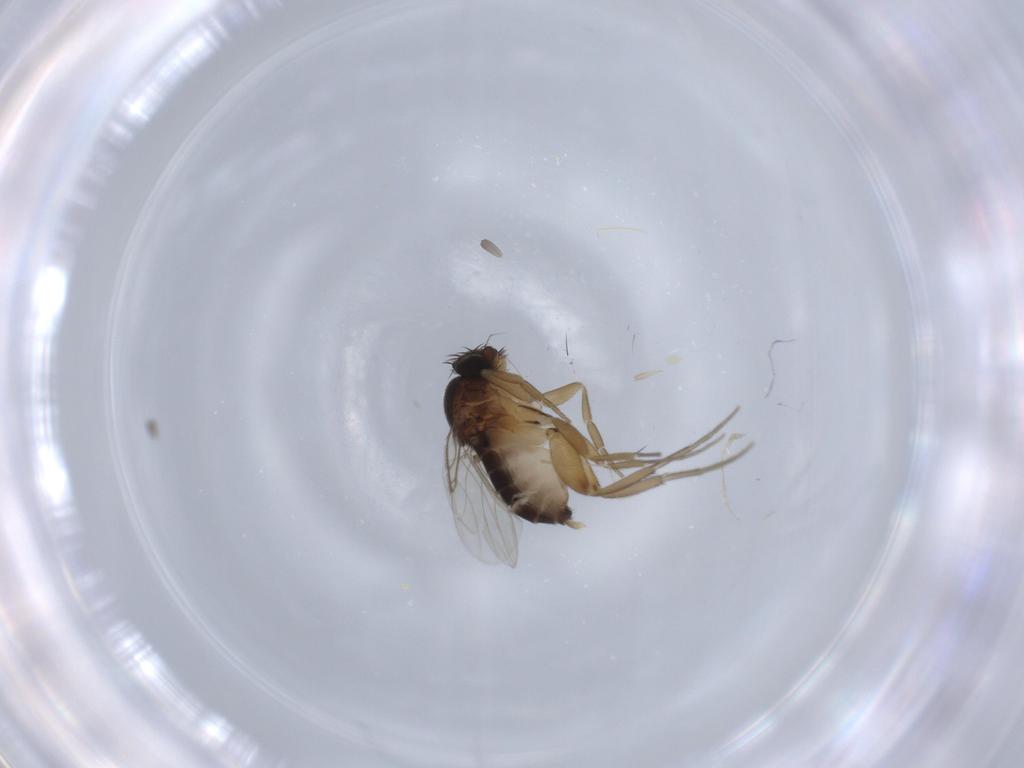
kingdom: Animalia
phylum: Arthropoda
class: Insecta
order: Diptera
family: Phoridae
